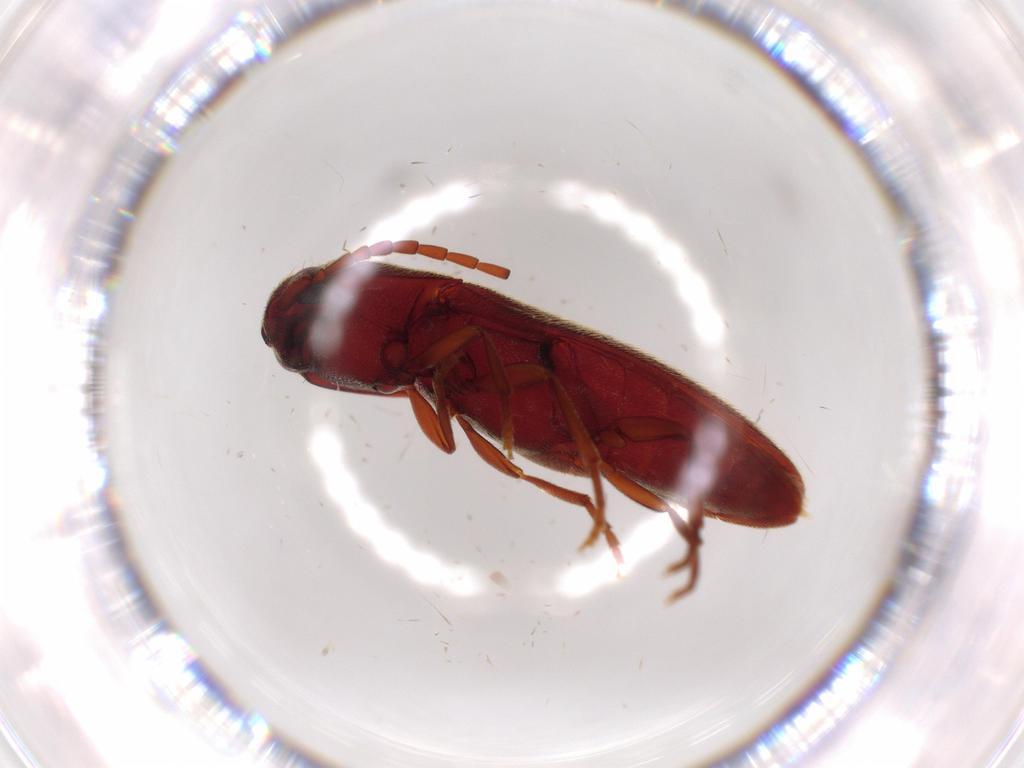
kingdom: Animalia
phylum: Arthropoda
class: Insecta
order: Coleoptera
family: Eucnemidae
